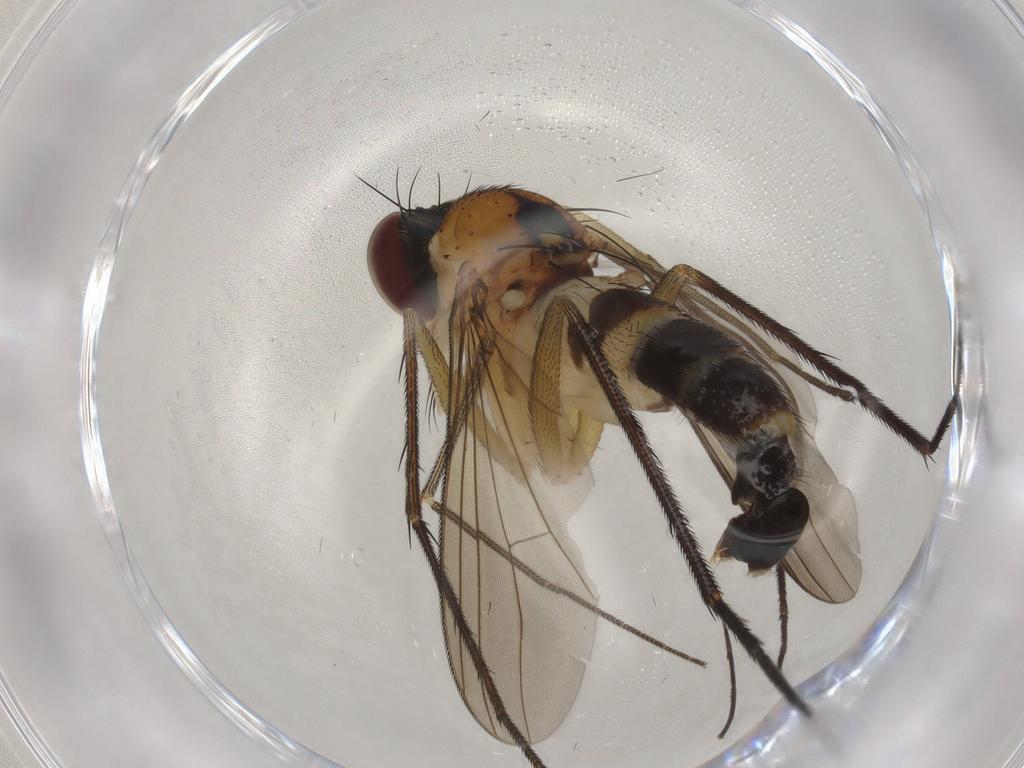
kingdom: Animalia
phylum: Arthropoda
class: Insecta
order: Diptera
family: Dolichopodidae
